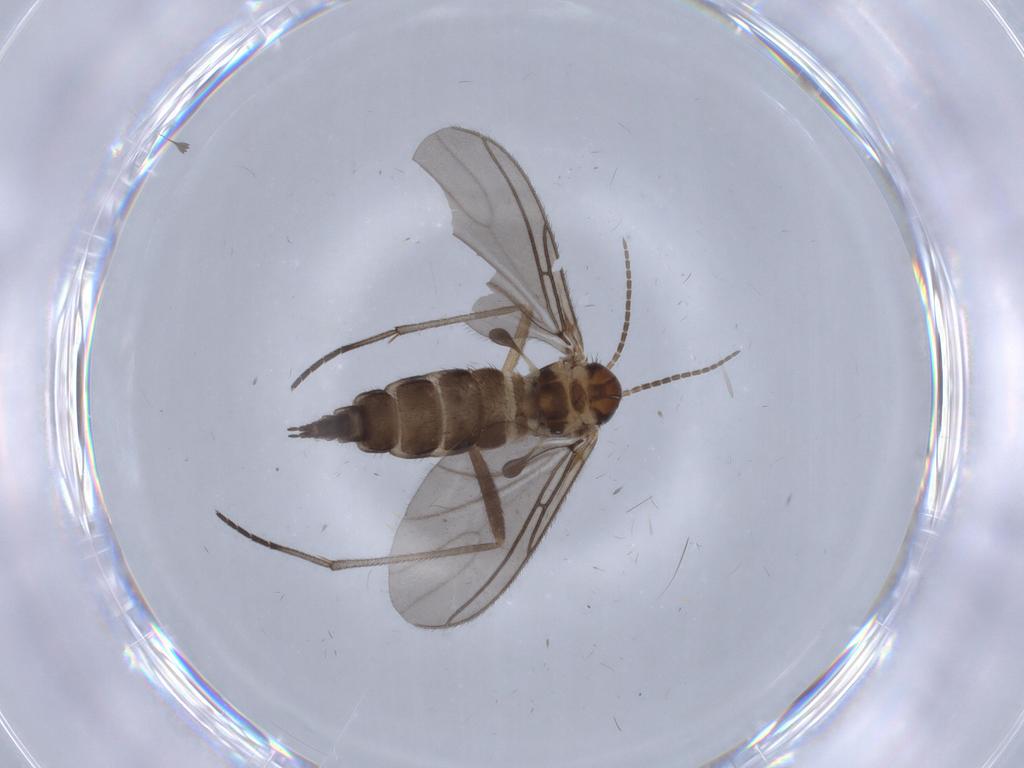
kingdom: Animalia
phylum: Arthropoda
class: Insecta
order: Diptera
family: Sciaridae
